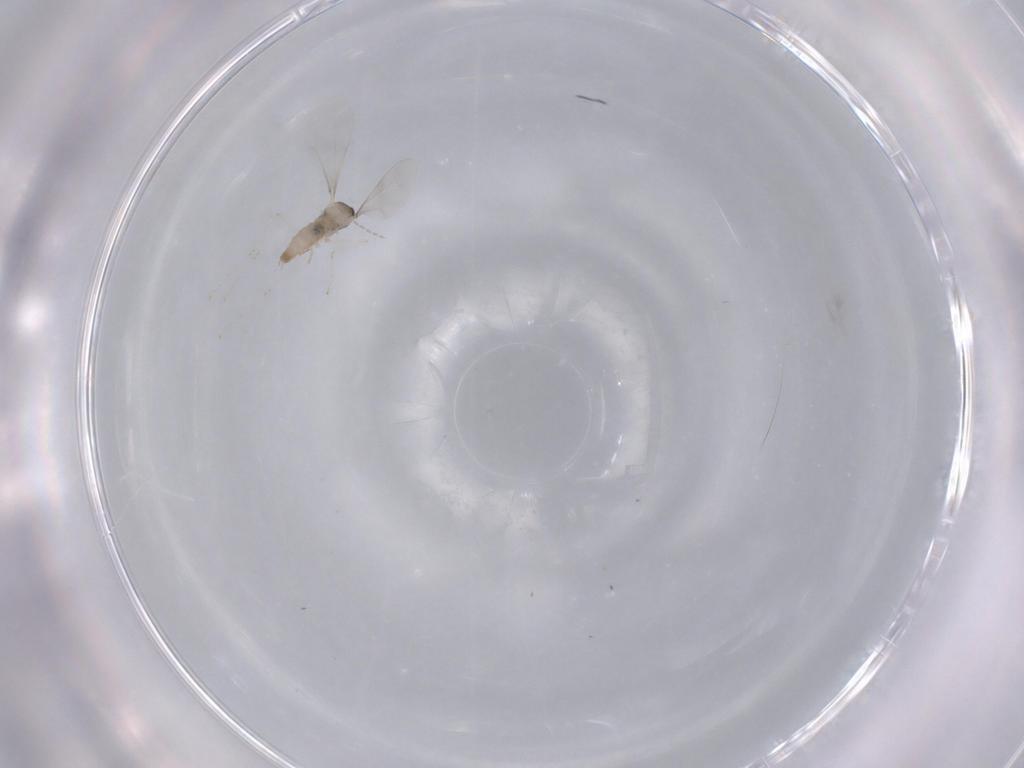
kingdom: Animalia
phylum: Arthropoda
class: Insecta
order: Diptera
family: Cecidomyiidae
